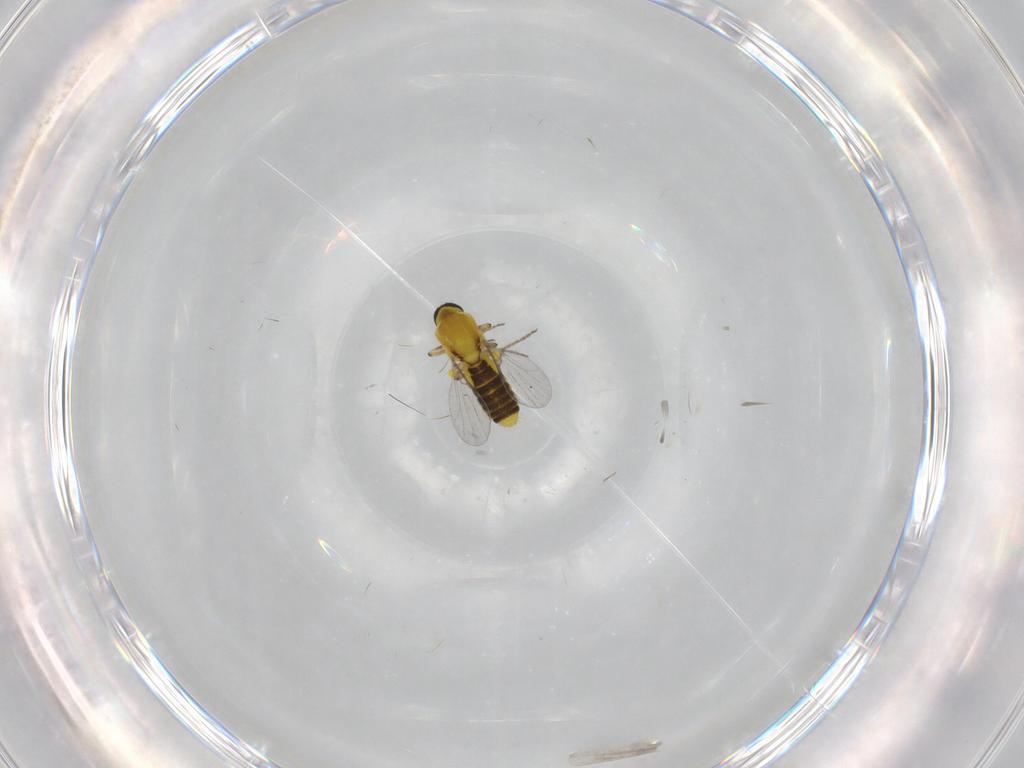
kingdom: Animalia
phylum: Arthropoda
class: Insecta
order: Diptera
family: Ceratopogonidae
